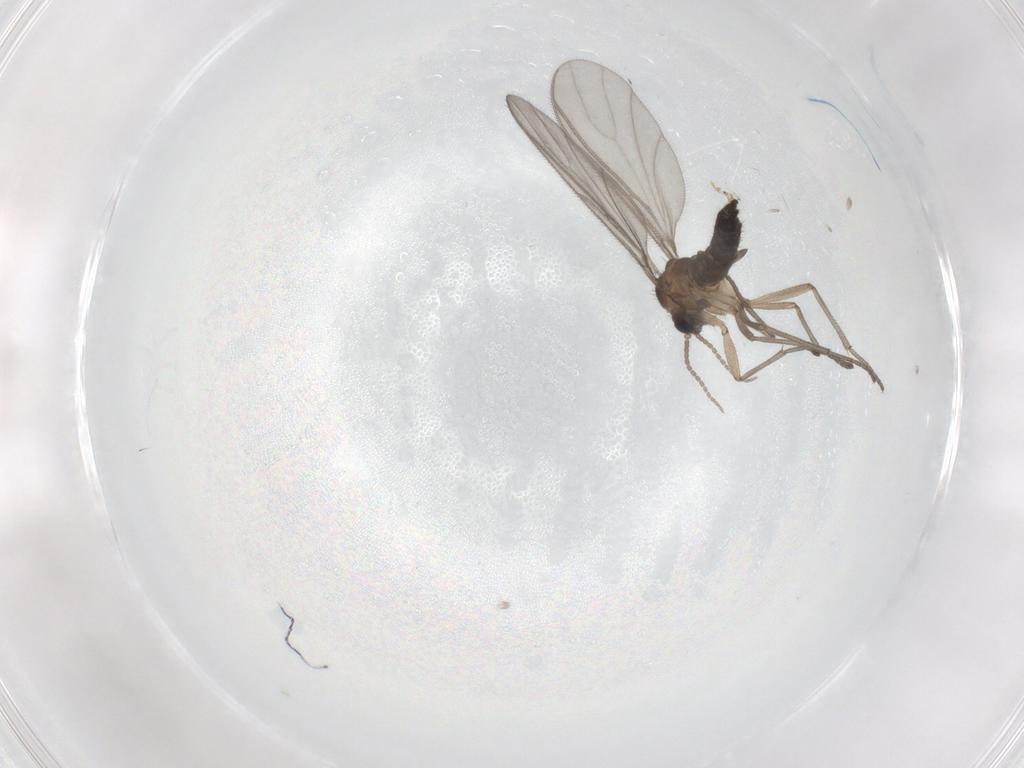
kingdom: Animalia
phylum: Arthropoda
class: Insecta
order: Diptera
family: Sciaridae
